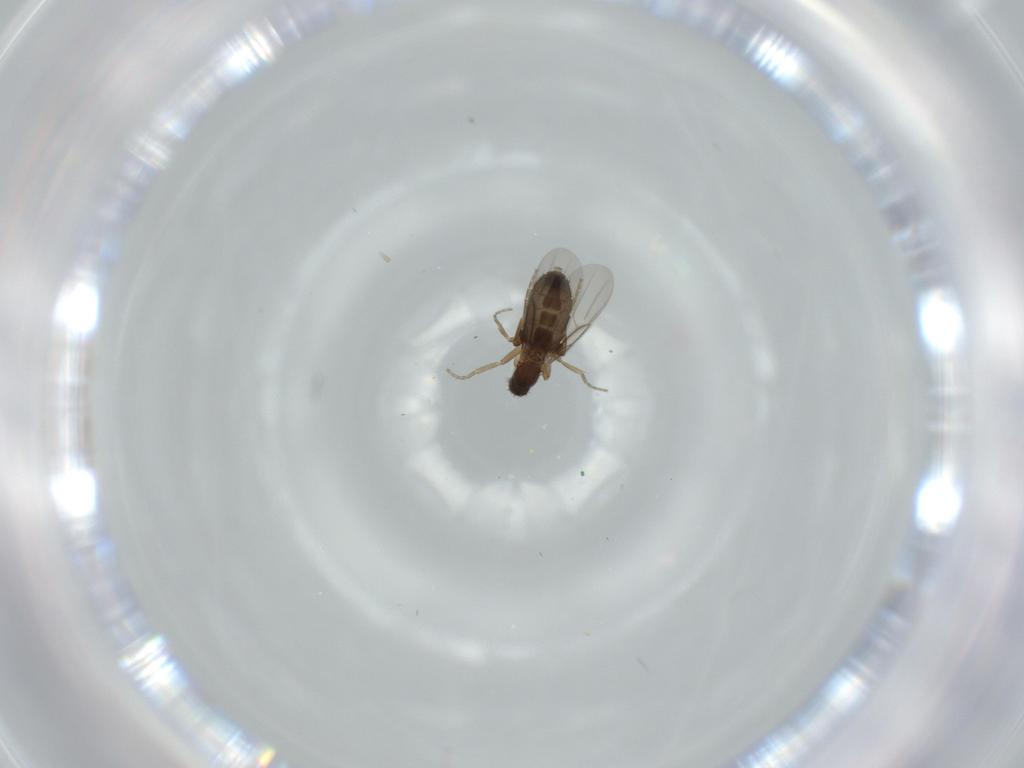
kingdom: Animalia
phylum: Arthropoda
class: Insecta
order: Diptera
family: Phoridae
